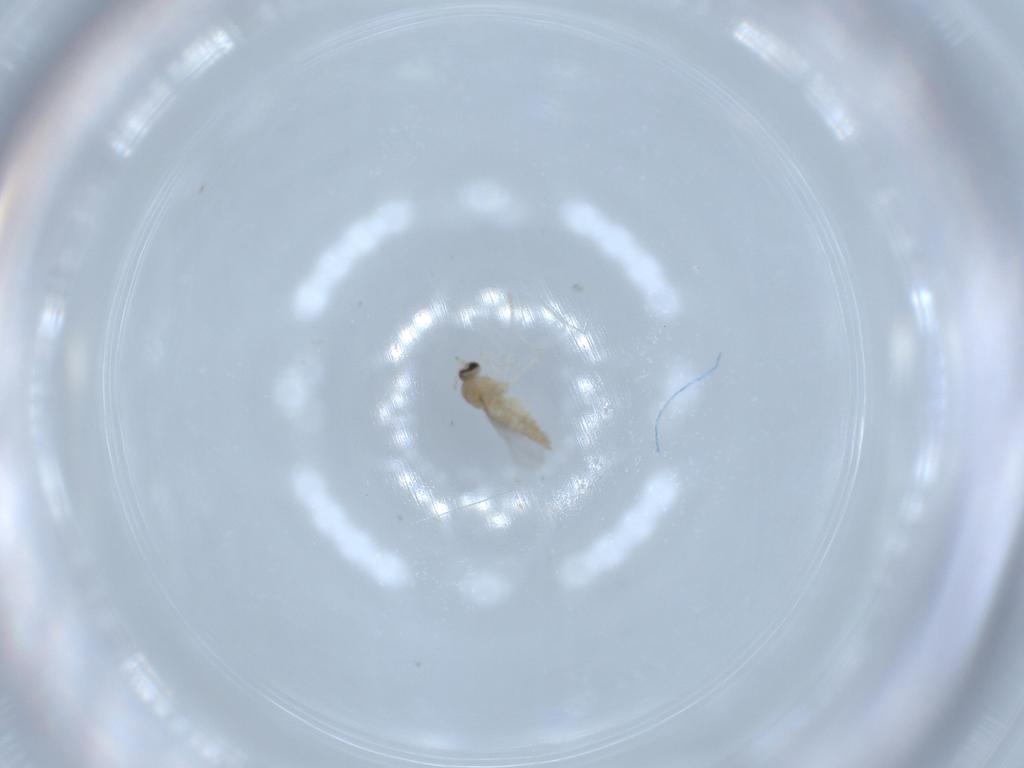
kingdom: Animalia
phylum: Arthropoda
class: Insecta
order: Diptera
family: Cecidomyiidae
